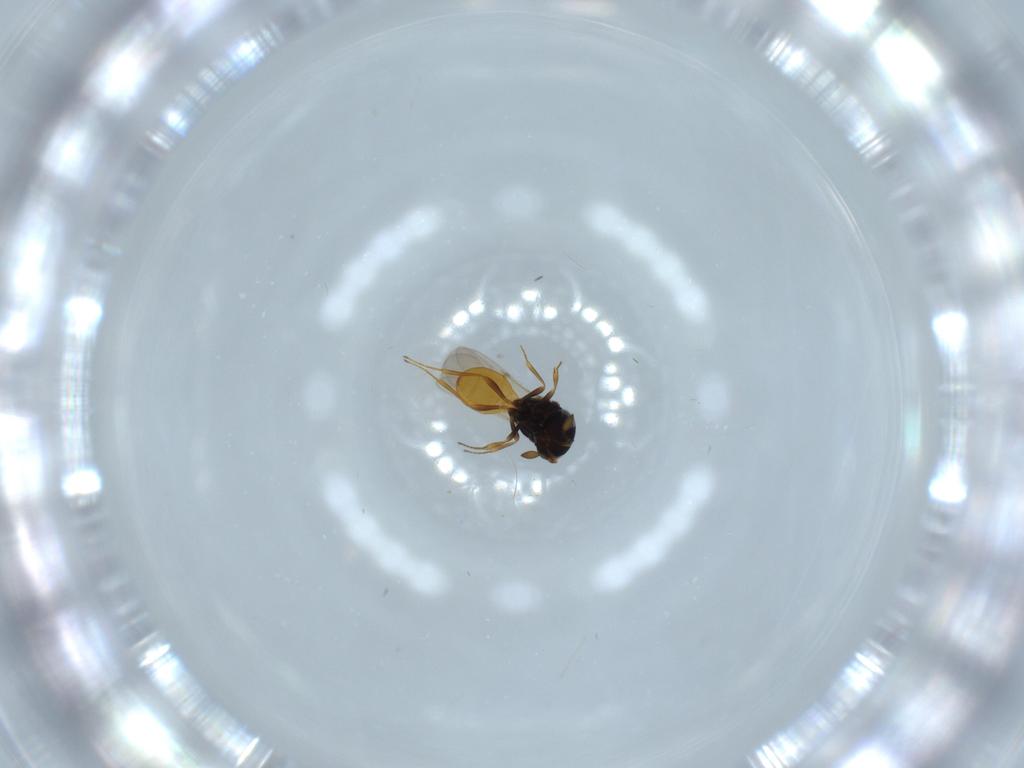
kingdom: Animalia
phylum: Arthropoda
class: Insecta
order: Hymenoptera
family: Scelionidae
